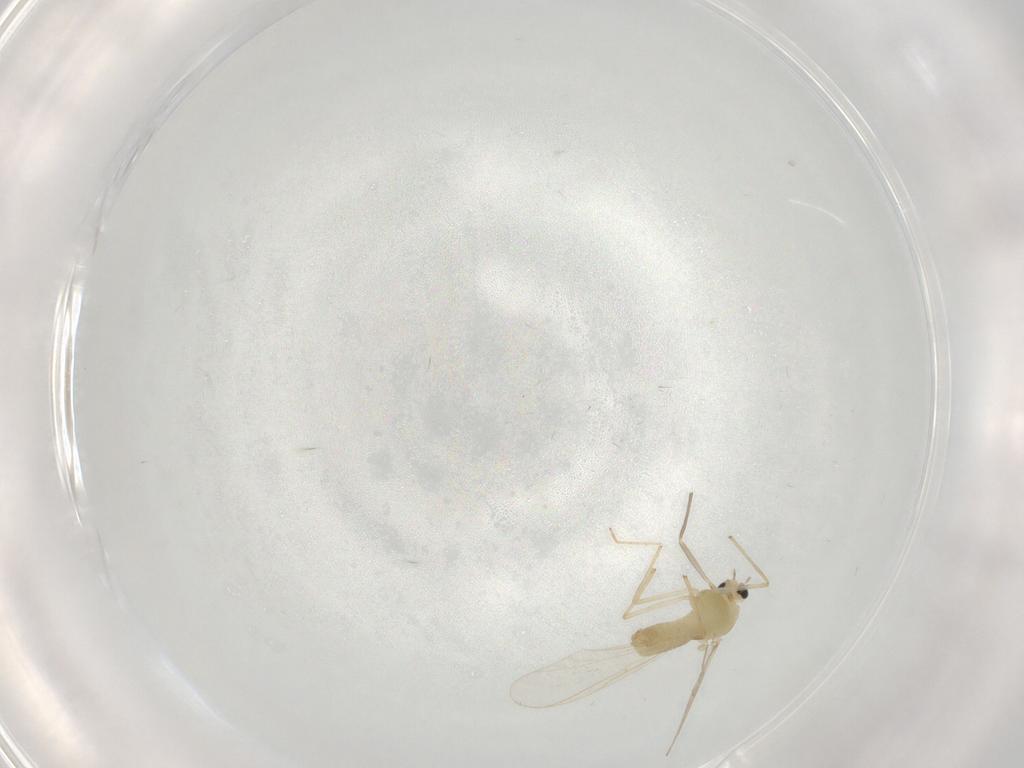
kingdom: Animalia
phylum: Arthropoda
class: Insecta
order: Diptera
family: Chironomidae
